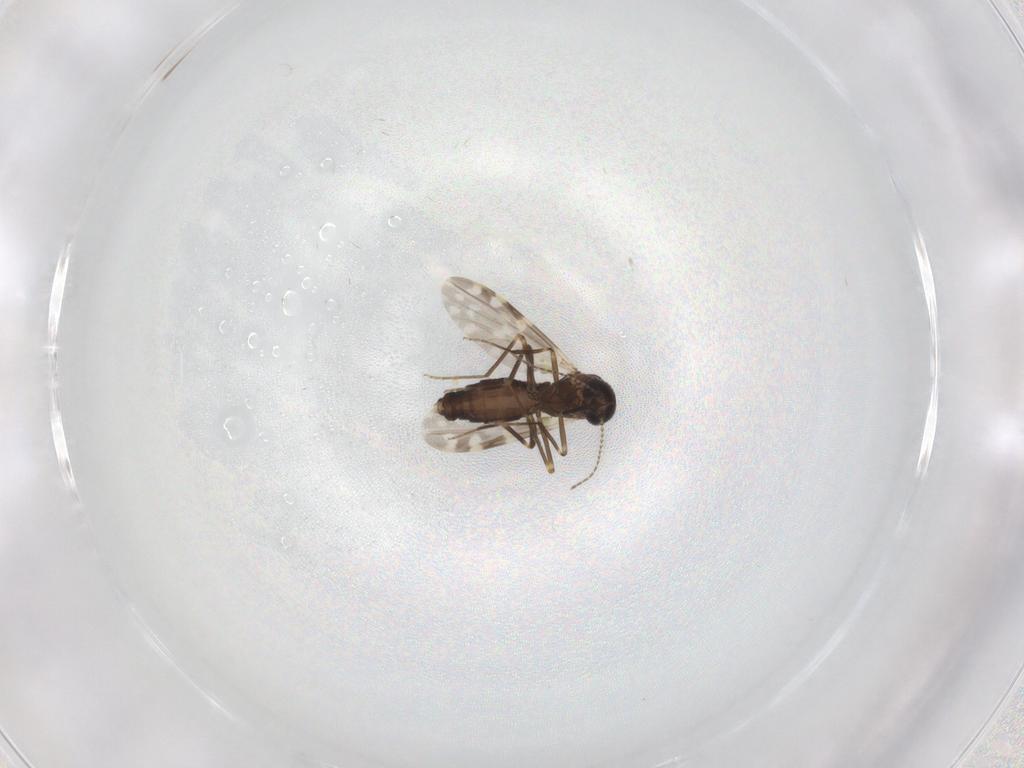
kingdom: Animalia
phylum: Arthropoda
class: Insecta
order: Diptera
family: Ceratopogonidae
